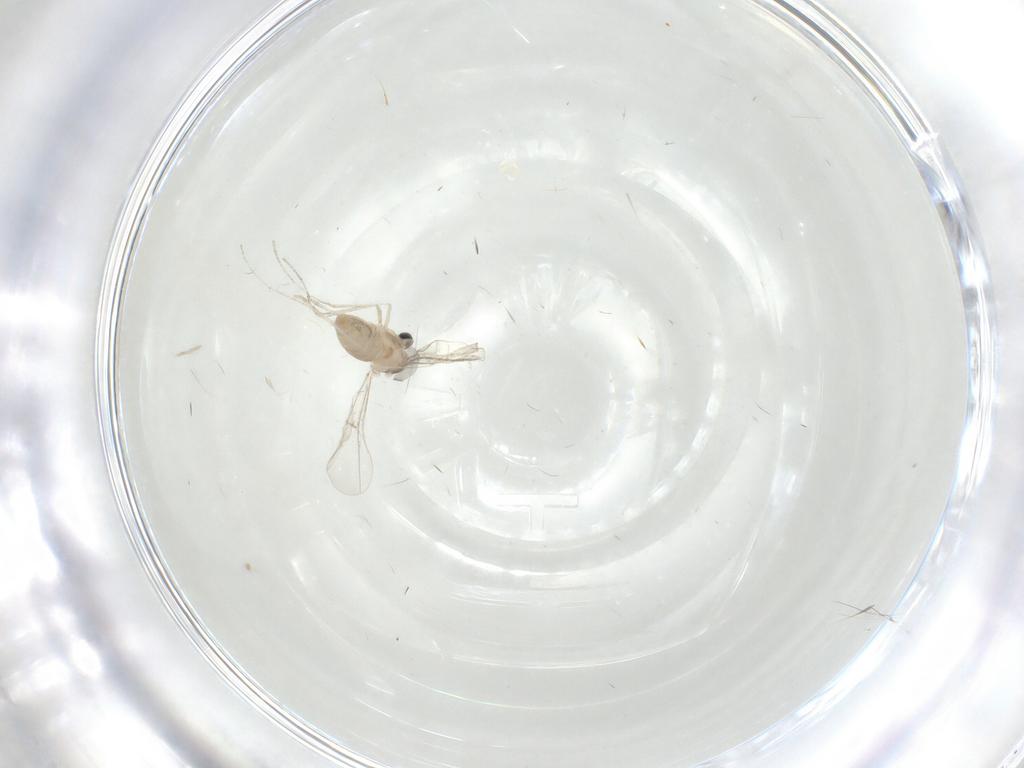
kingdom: Animalia
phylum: Arthropoda
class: Insecta
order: Diptera
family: Cecidomyiidae
